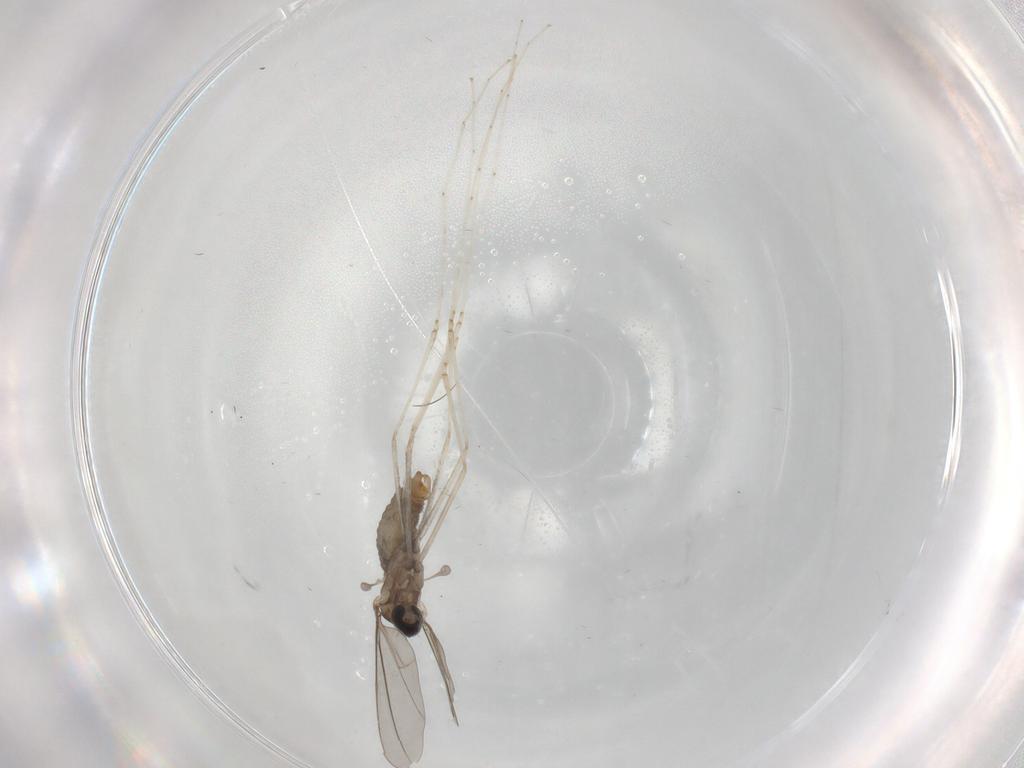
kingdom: Animalia
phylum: Arthropoda
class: Insecta
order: Diptera
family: Cecidomyiidae
